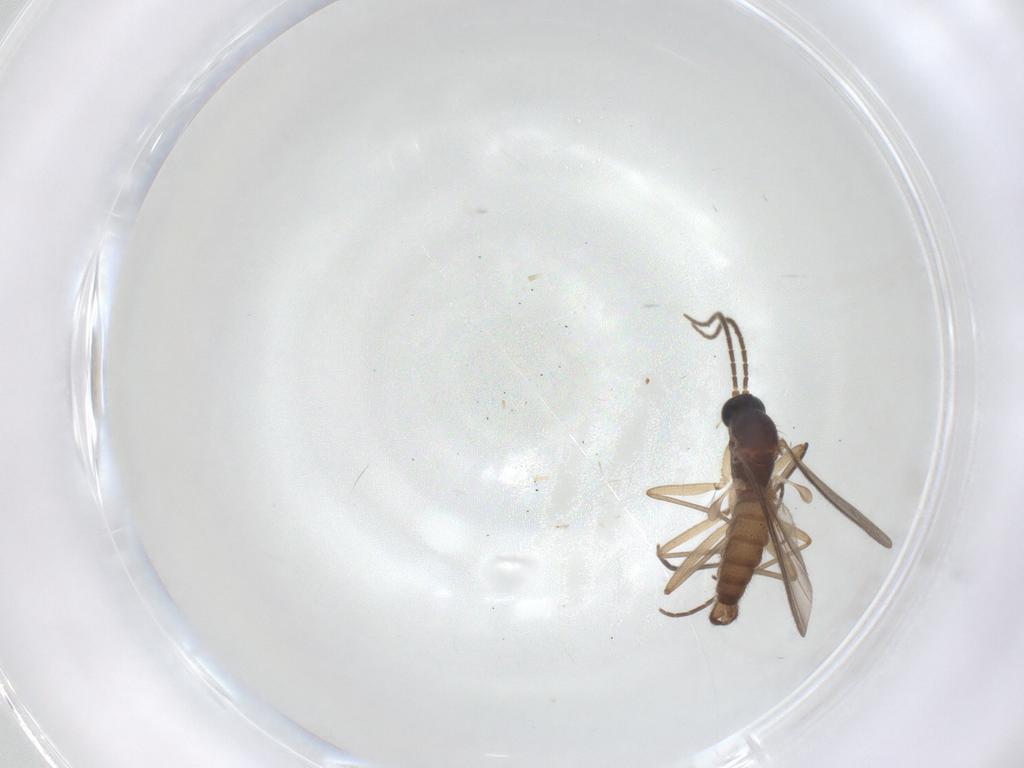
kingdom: Animalia
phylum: Arthropoda
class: Insecta
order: Diptera
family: Sciaridae
